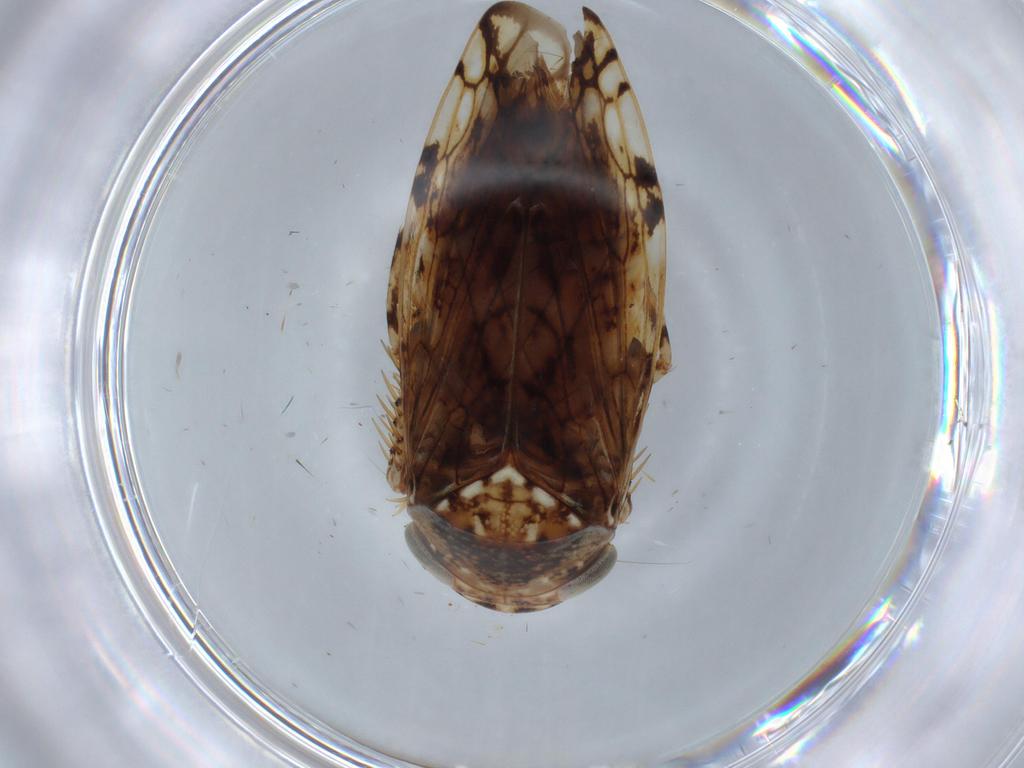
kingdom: Animalia
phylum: Arthropoda
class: Insecta
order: Hemiptera
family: Cicadellidae
